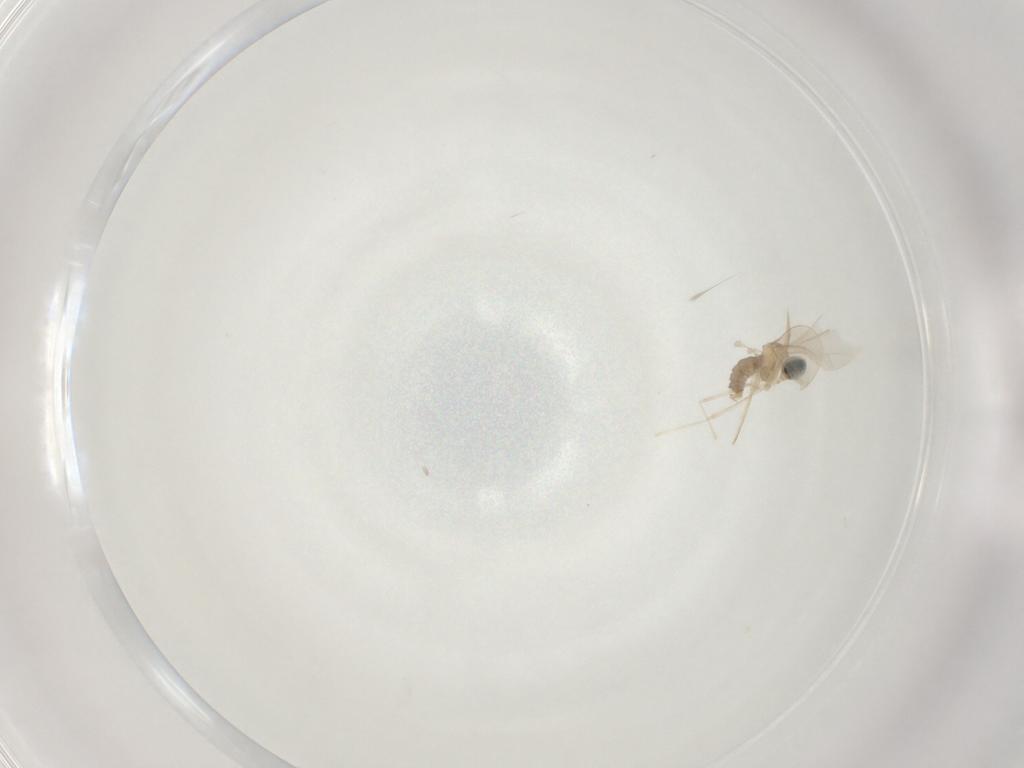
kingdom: Animalia
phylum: Arthropoda
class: Insecta
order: Diptera
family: Cecidomyiidae
